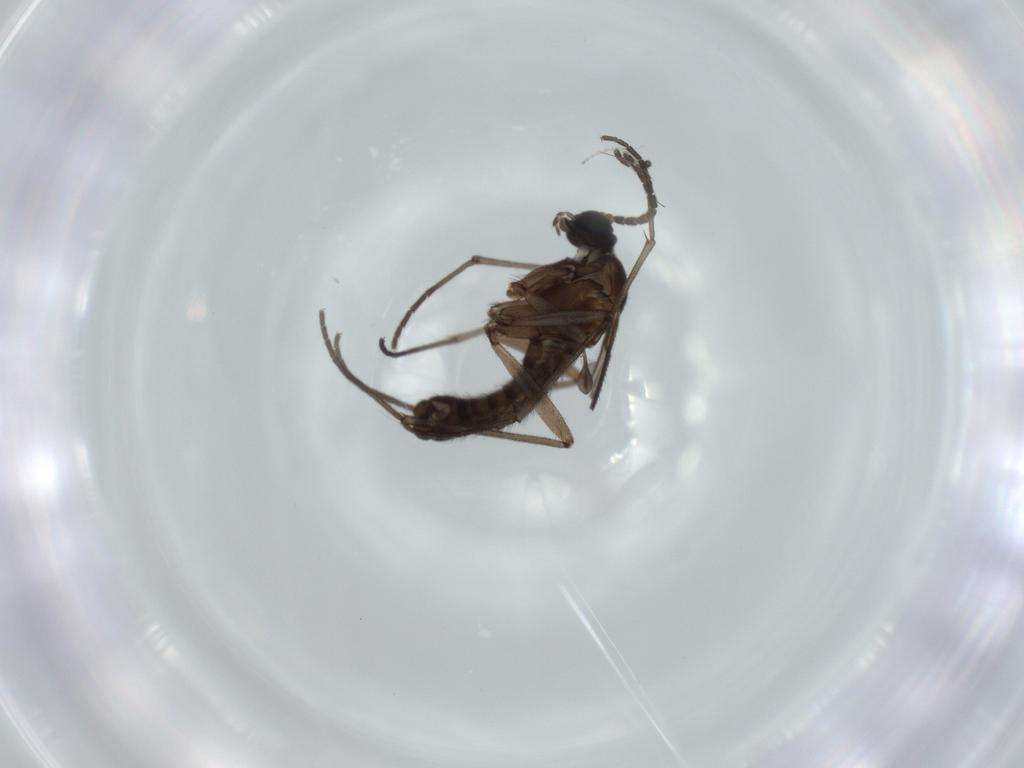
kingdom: Animalia
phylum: Arthropoda
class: Insecta
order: Diptera
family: Sciaridae
